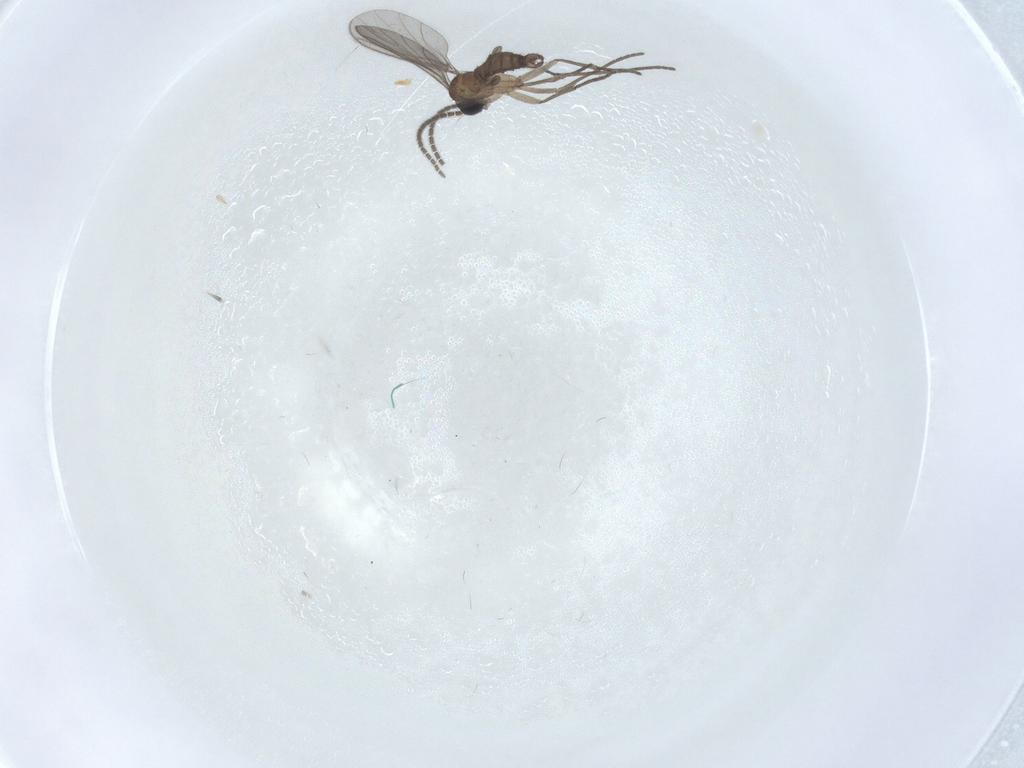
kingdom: Animalia
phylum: Arthropoda
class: Insecta
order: Diptera
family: Sciaridae
